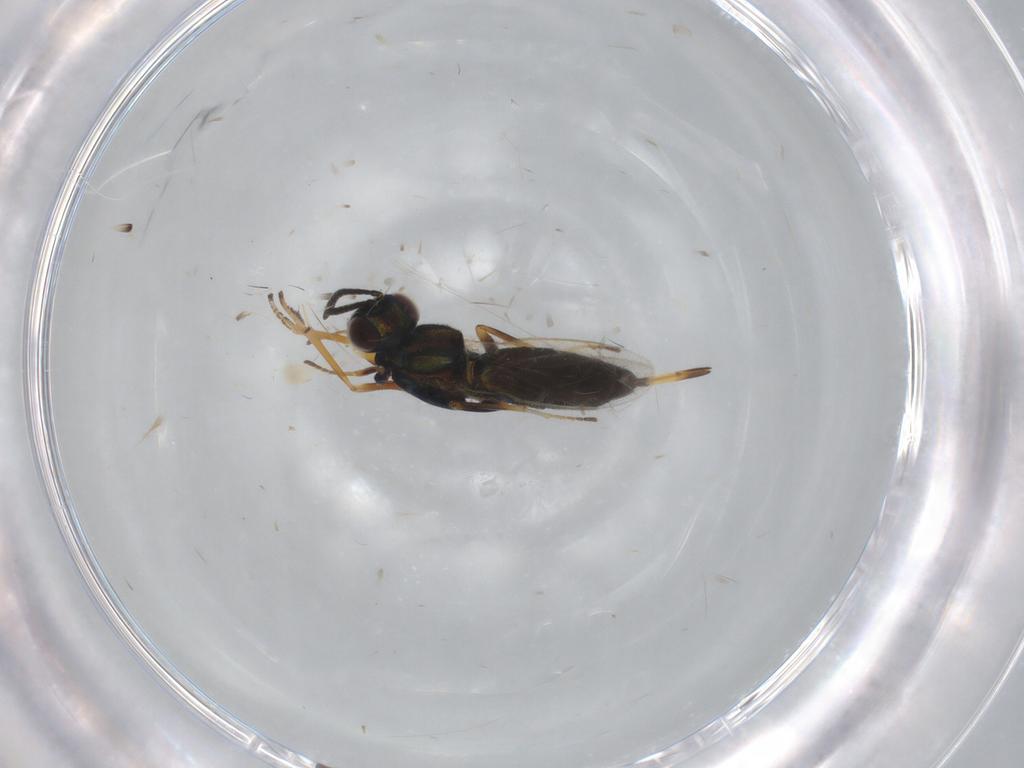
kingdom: Animalia
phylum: Arthropoda
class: Insecta
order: Hymenoptera
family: Eupelmidae
